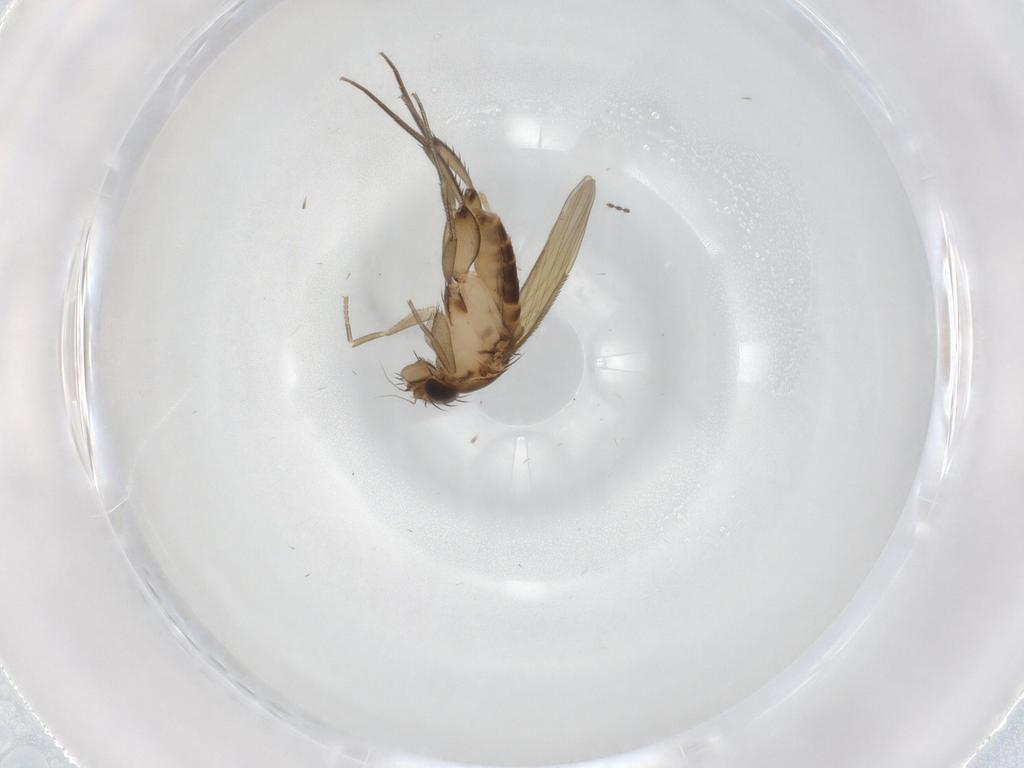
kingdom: Animalia
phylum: Arthropoda
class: Insecta
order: Diptera
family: Phoridae
